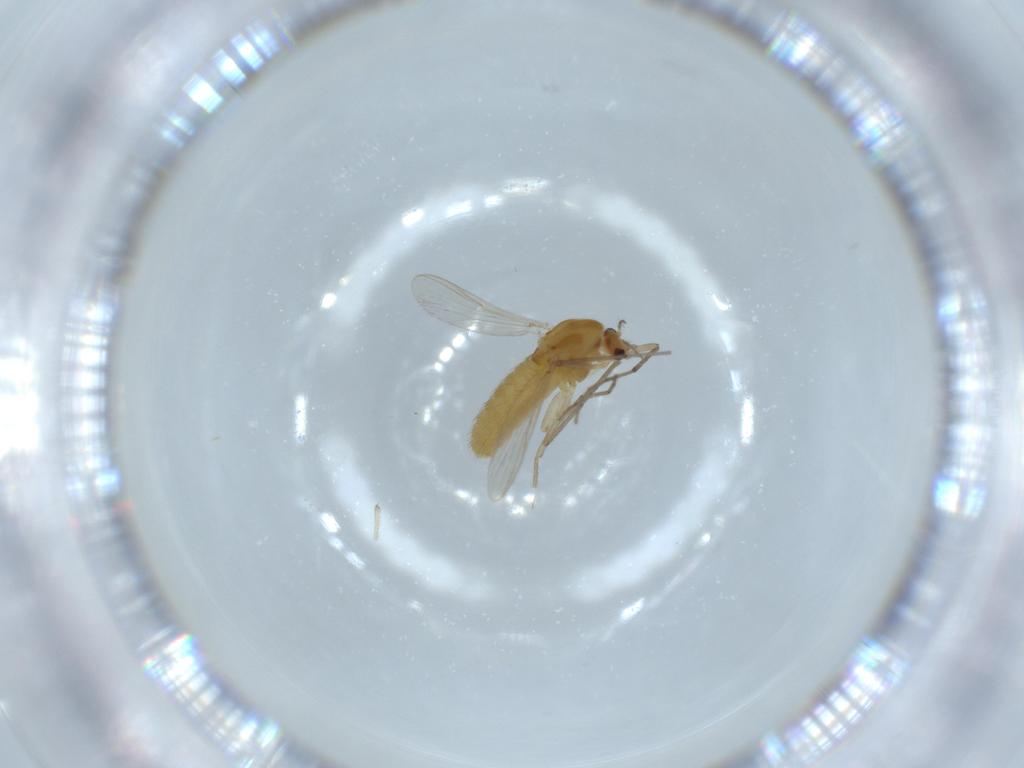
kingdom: Animalia
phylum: Arthropoda
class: Insecta
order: Diptera
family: Chironomidae
